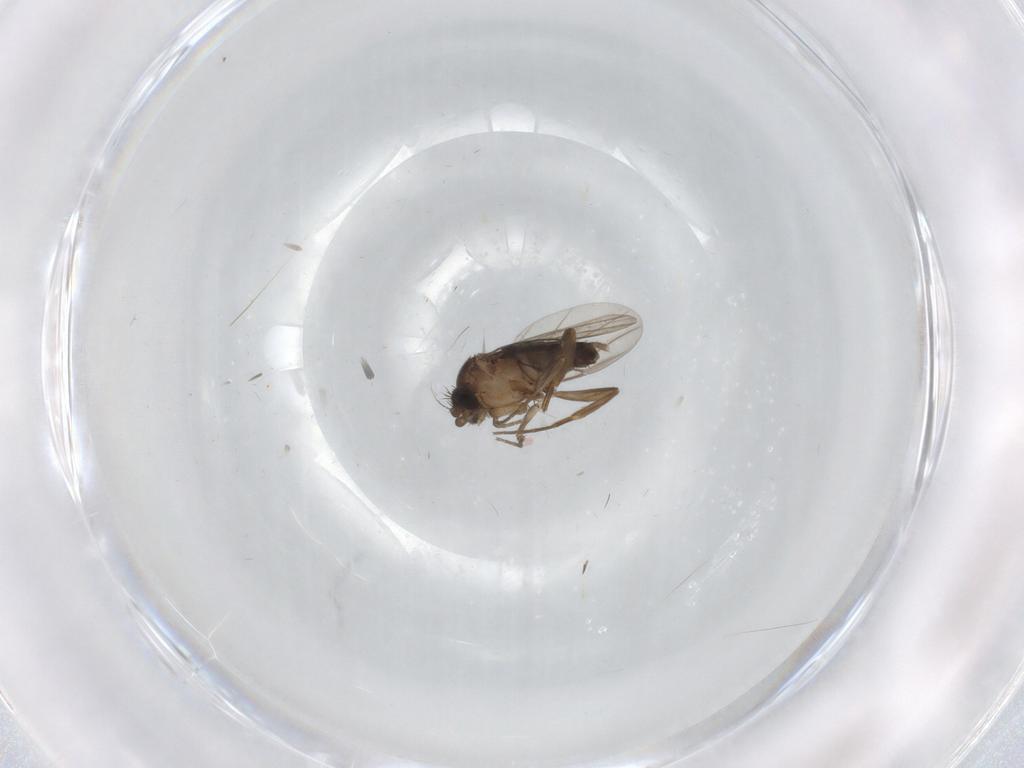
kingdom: Animalia
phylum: Arthropoda
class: Insecta
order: Diptera
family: Phoridae
